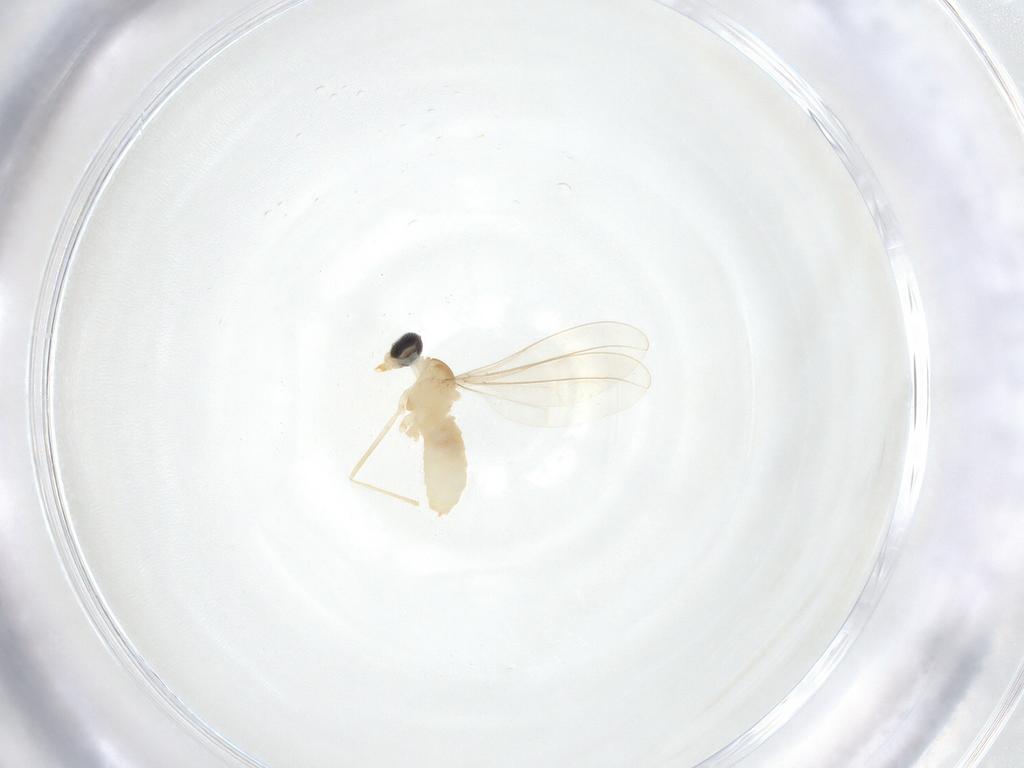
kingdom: Animalia
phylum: Arthropoda
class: Insecta
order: Diptera
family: Cecidomyiidae
